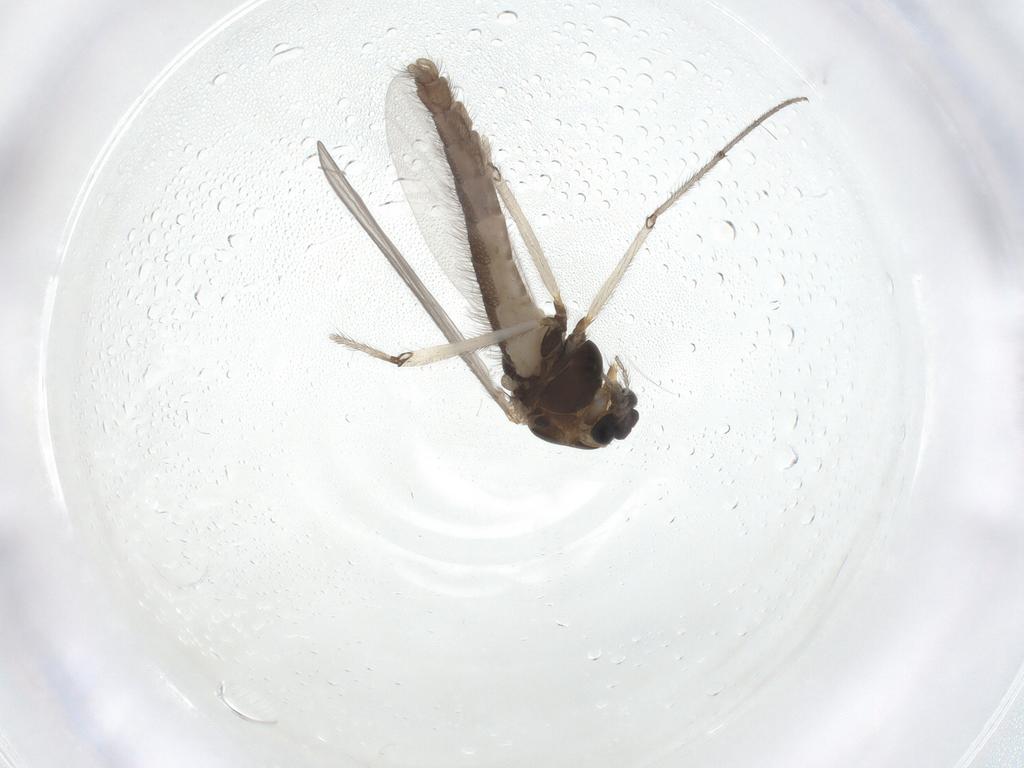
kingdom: Animalia
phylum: Arthropoda
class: Insecta
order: Diptera
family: Chironomidae
